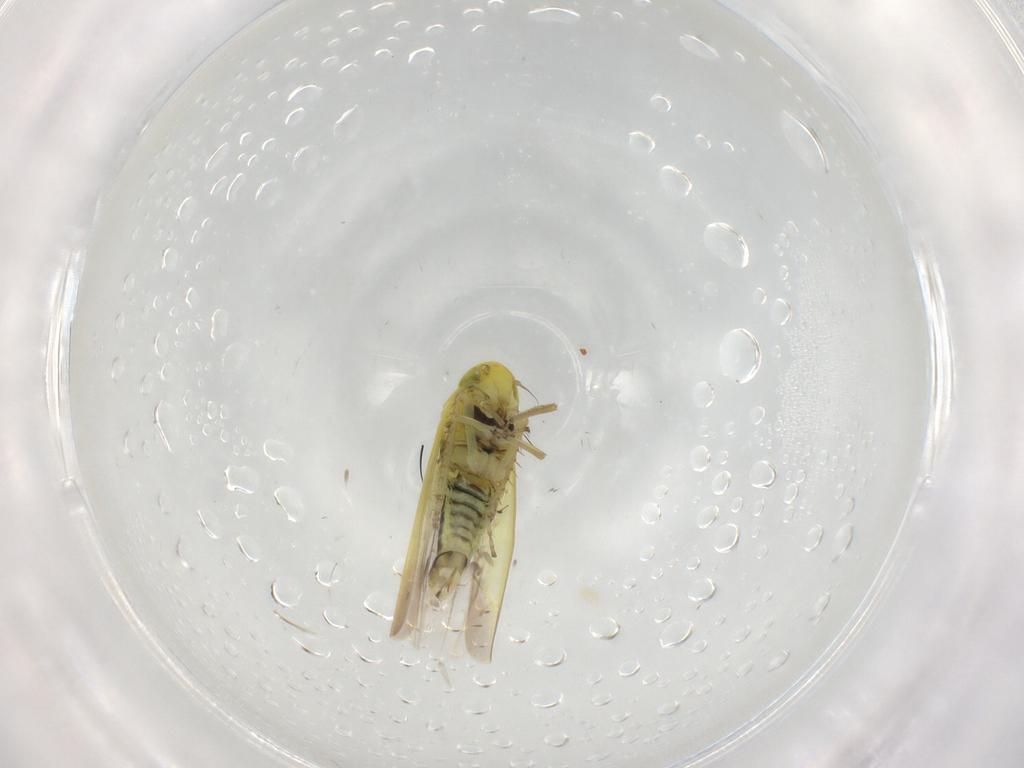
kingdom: Animalia
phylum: Arthropoda
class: Insecta
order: Hemiptera
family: Cicadellidae
